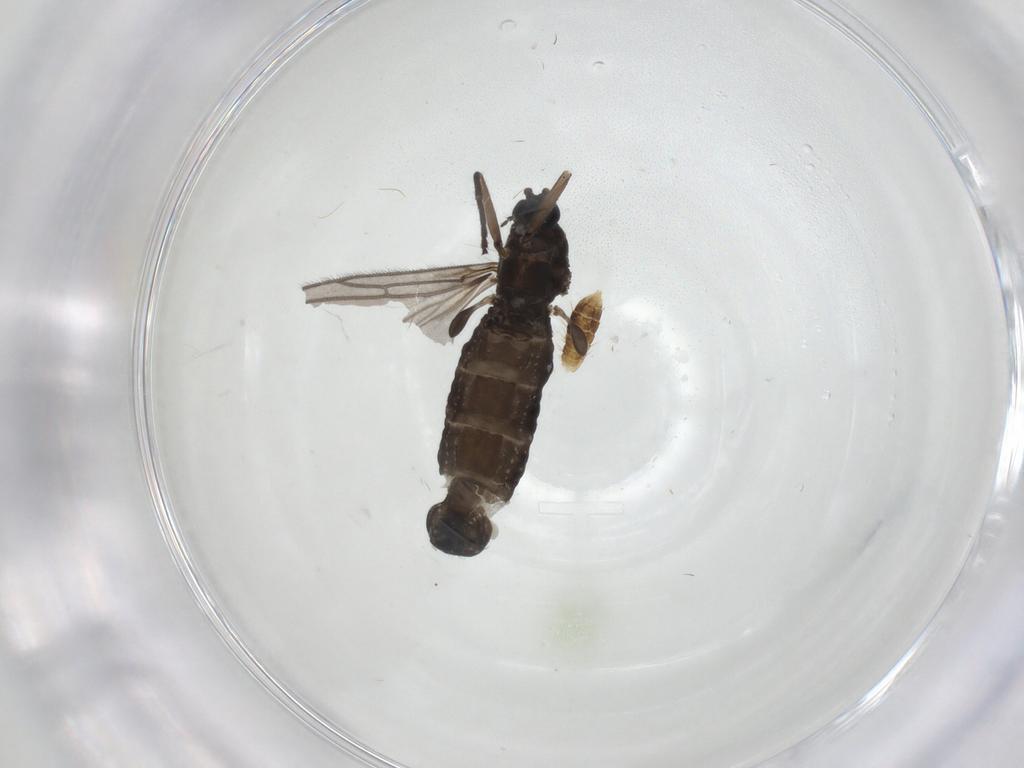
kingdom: Animalia
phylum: Arthropoda
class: Insecta
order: Diptera
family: Sciaridae
